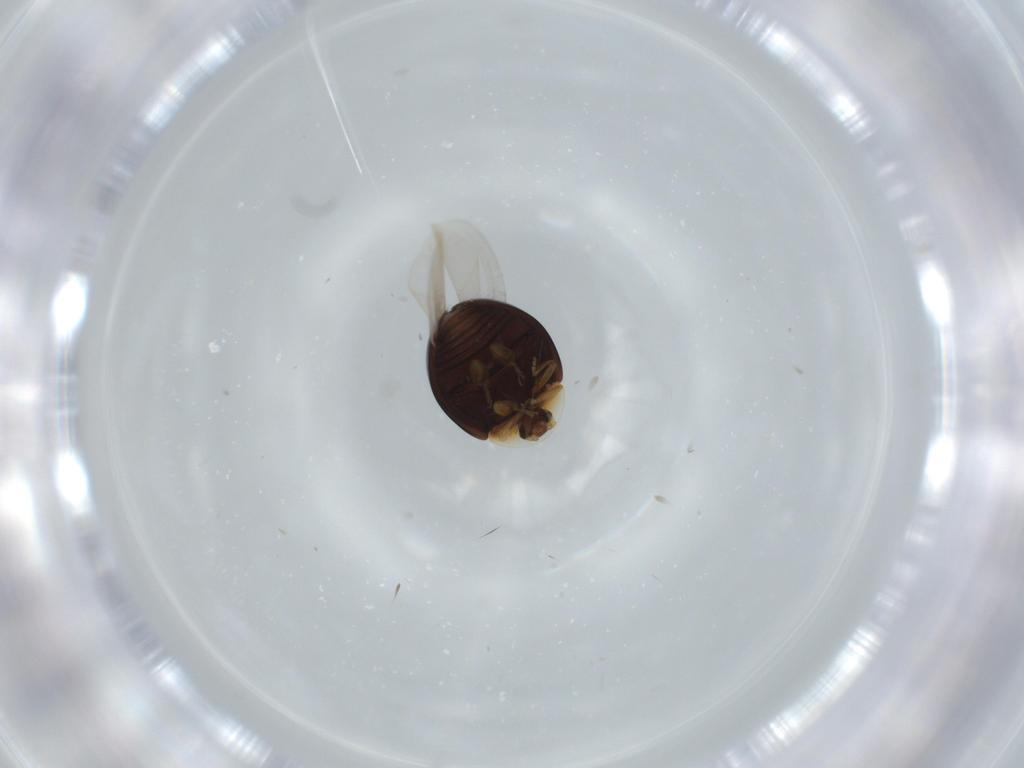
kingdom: Animalia
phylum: Arthropoda
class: Insecta
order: Coleoptera
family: Corylophidae
